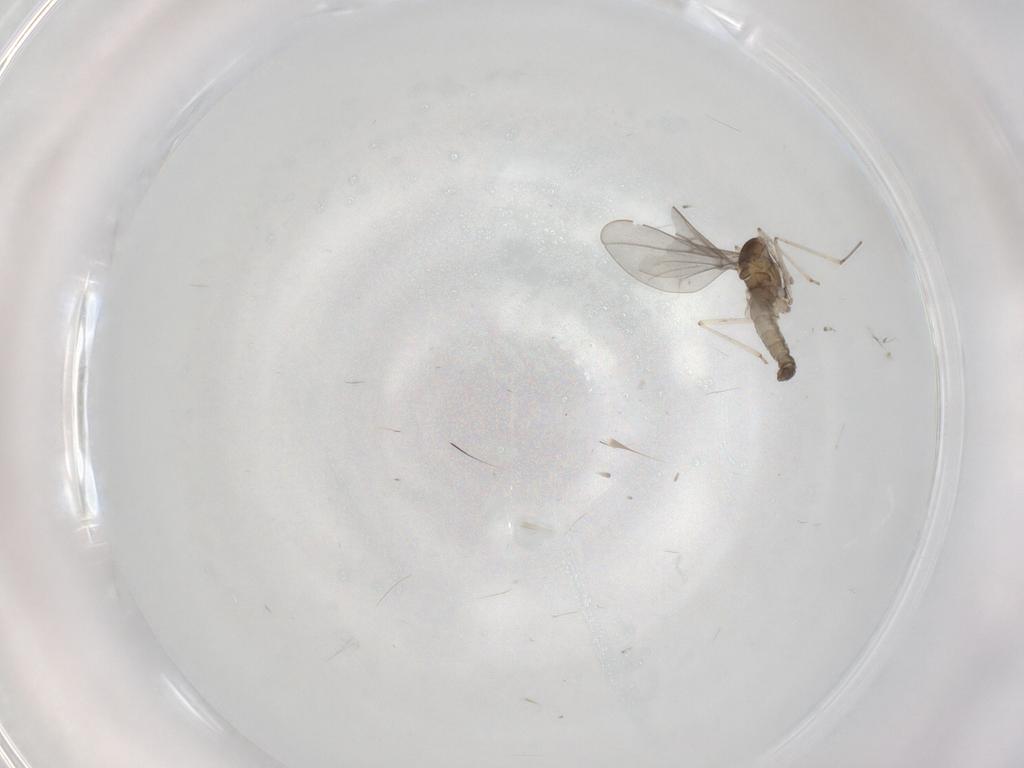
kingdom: Animalia
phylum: Arthropoda
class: Insecta
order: Diptera
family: Lauxaniidae
